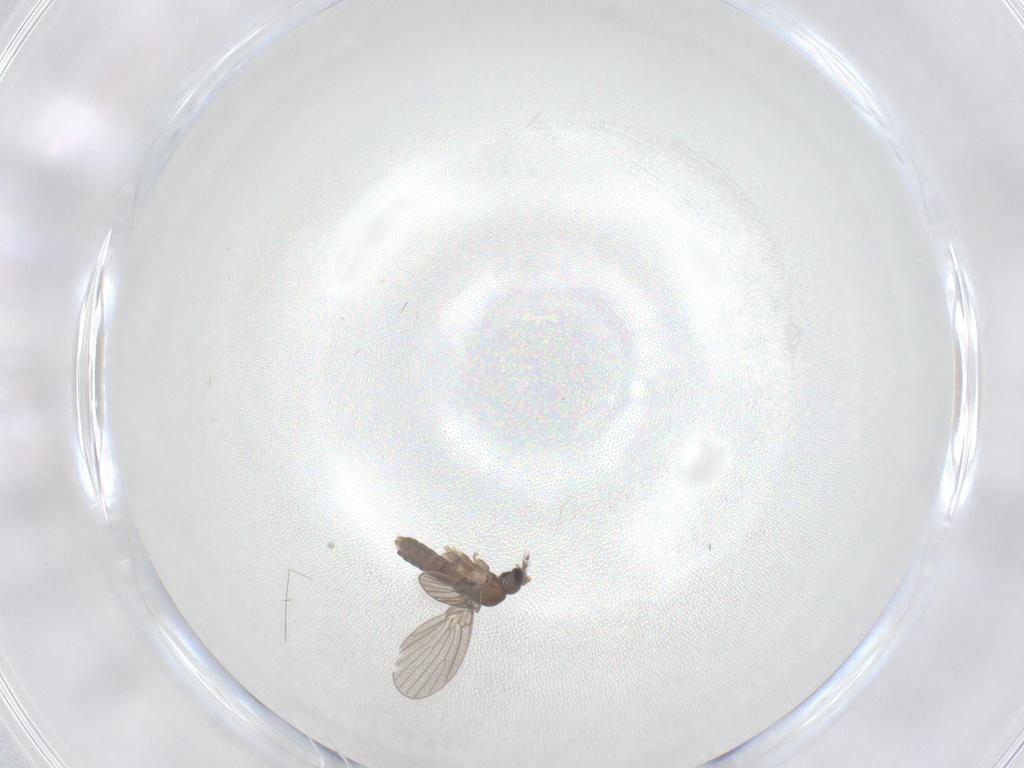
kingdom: Animalia
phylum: Arthropoda
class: Insecta
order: Diptera
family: Psychodidae
